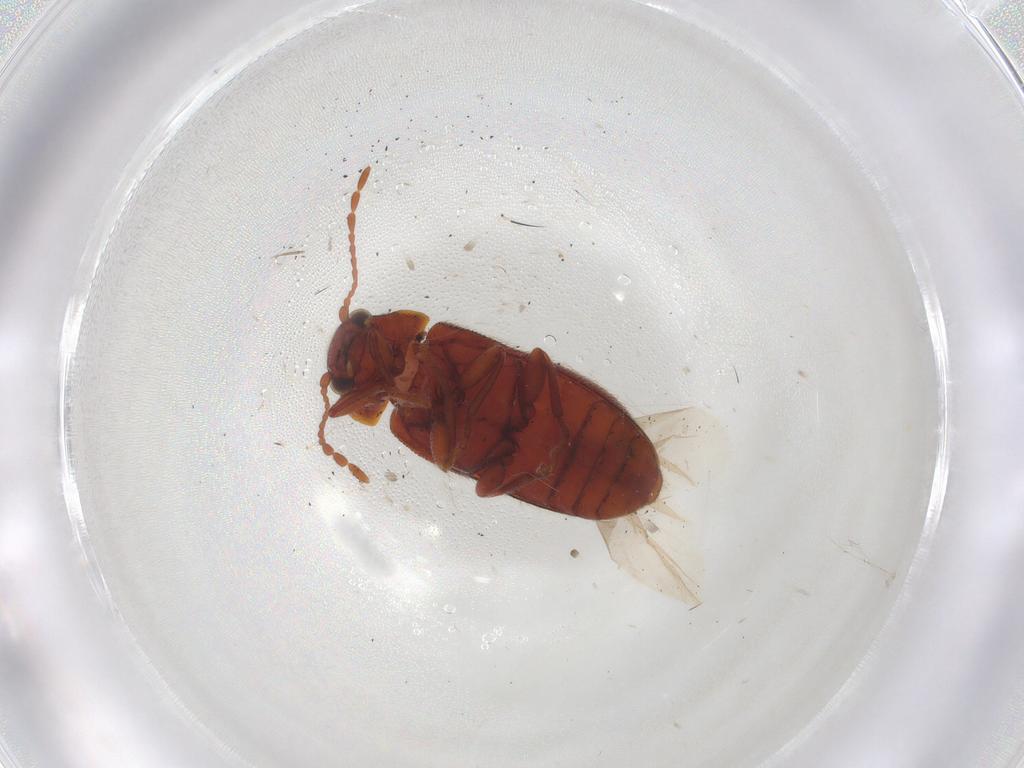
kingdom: Animalia
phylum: Arthropoda
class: Insecta
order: Coleoptera
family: Ptinidae
